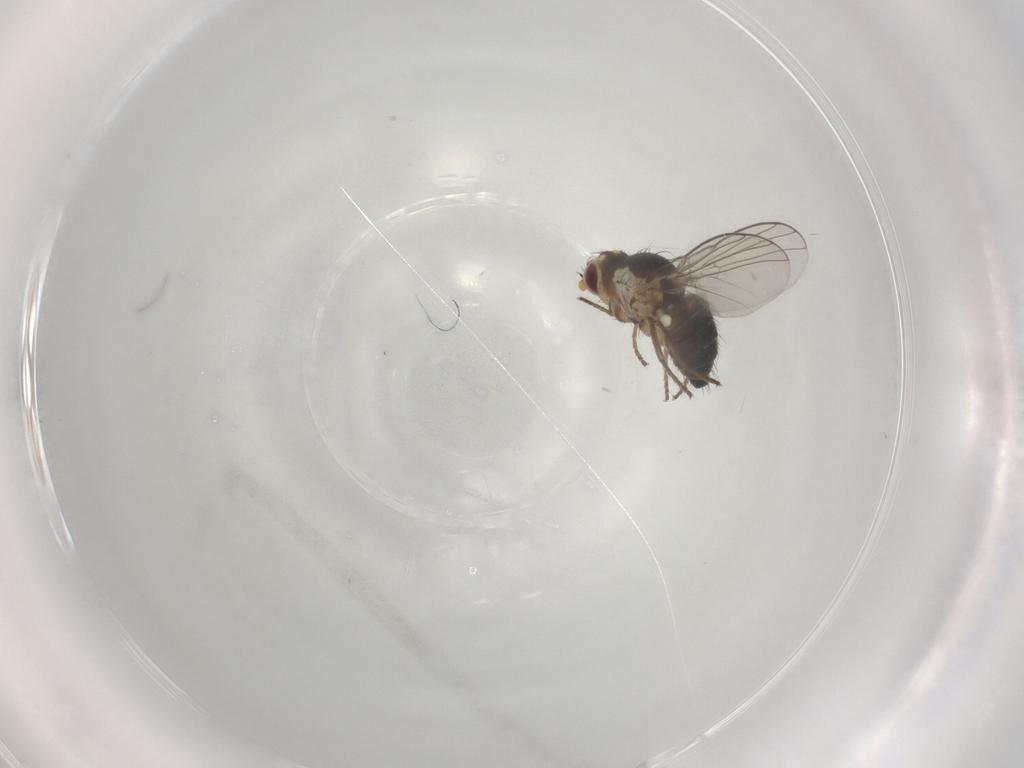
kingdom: Animalia
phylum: Arthropoda
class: Insecta
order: Diptera
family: Agromyzidae
